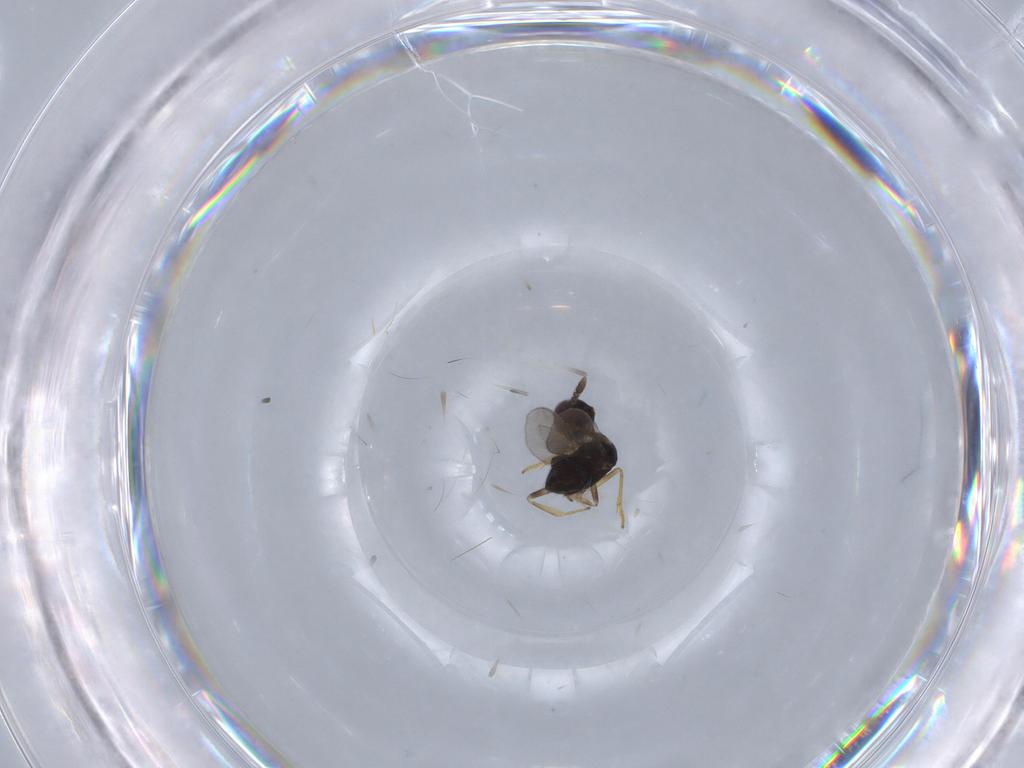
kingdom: Animalia
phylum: Arthropoda
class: Insecta
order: Hymenoptera
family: Encyrtidae
